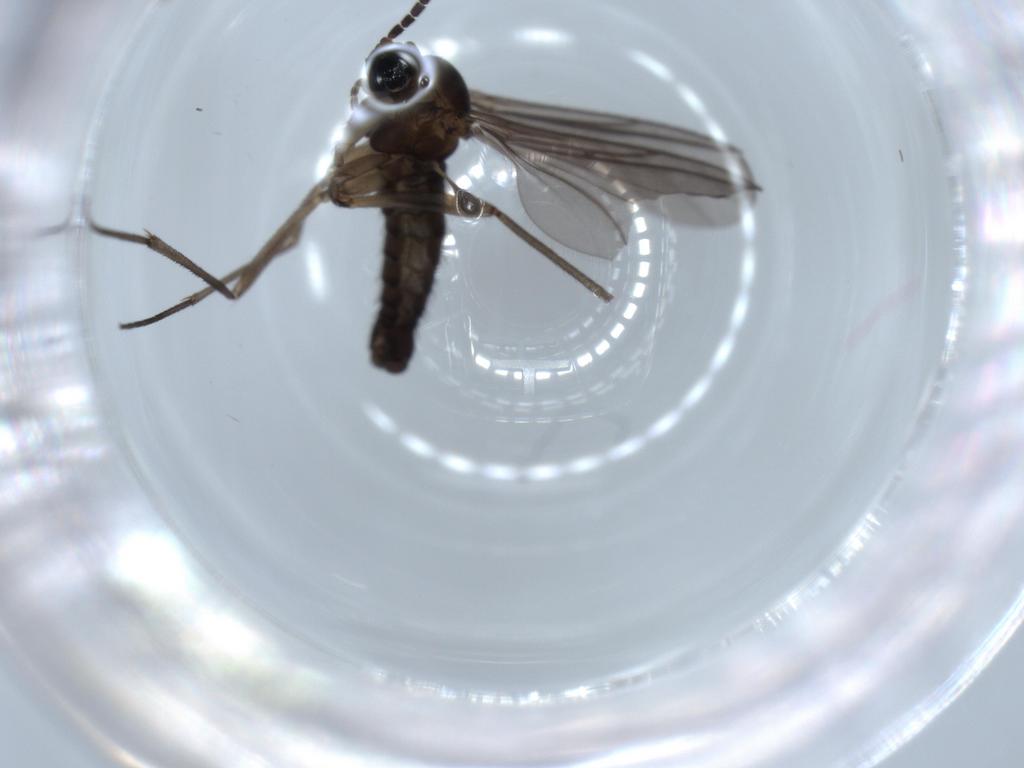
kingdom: Animalia
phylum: Arthropoda
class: Insecta
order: Diptera
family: Sciaridae
